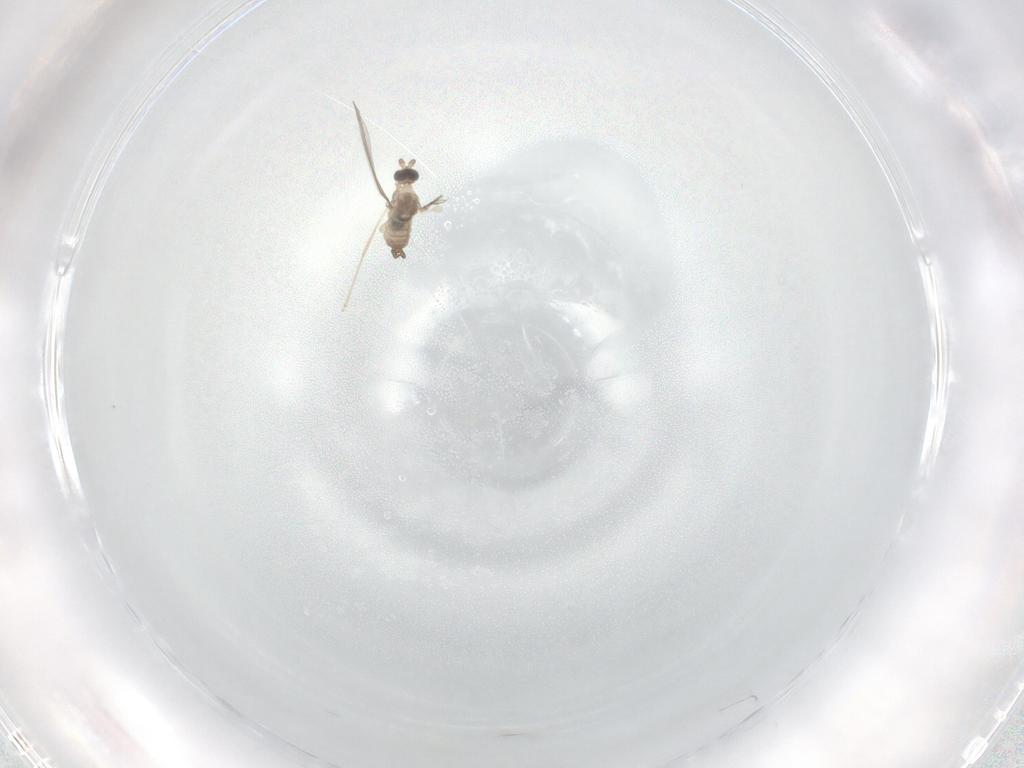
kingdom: Animalia
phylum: Arthropoda
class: Insecta
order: Diptera
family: Cecidomyiidae
